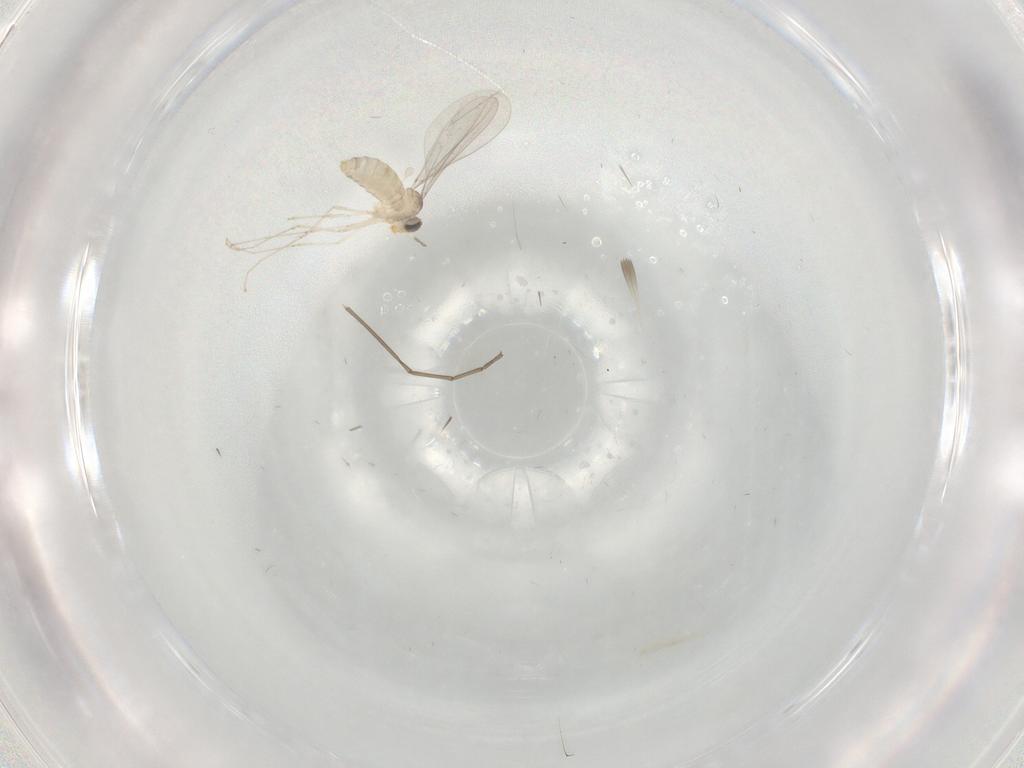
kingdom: Animalia
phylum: Arthropoda
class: Insecta
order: Diptera
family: Cecidomyiidae
